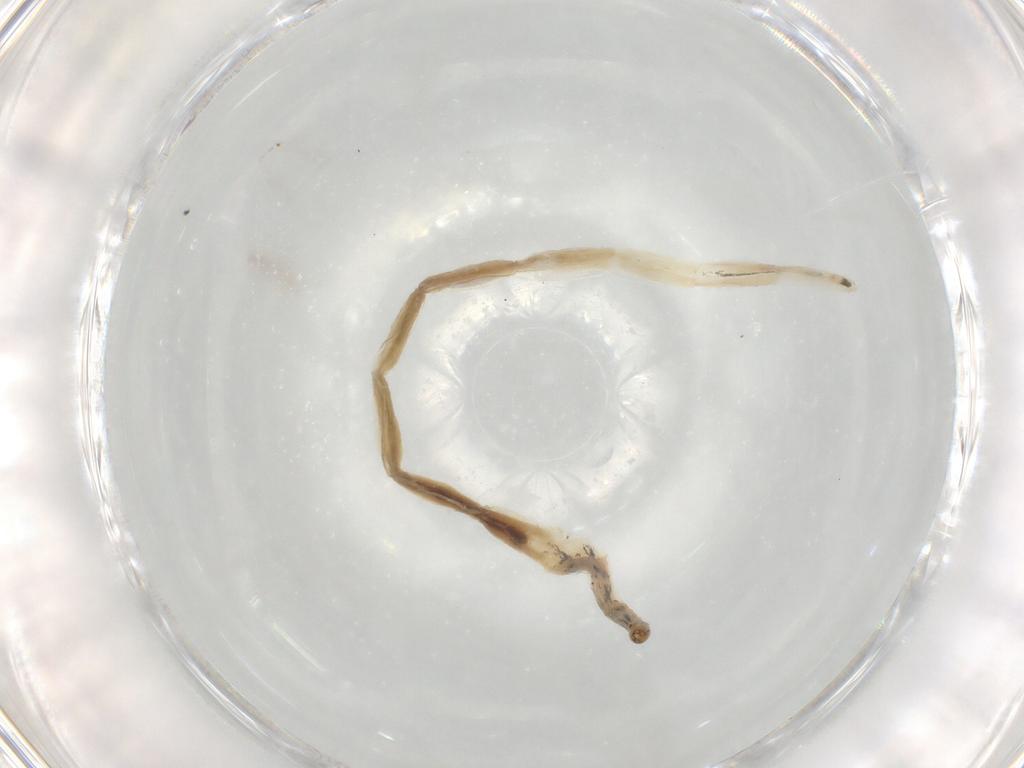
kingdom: Animalia
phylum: Arthropoda
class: Insecta
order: Diptera
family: Ceratopogonidae
